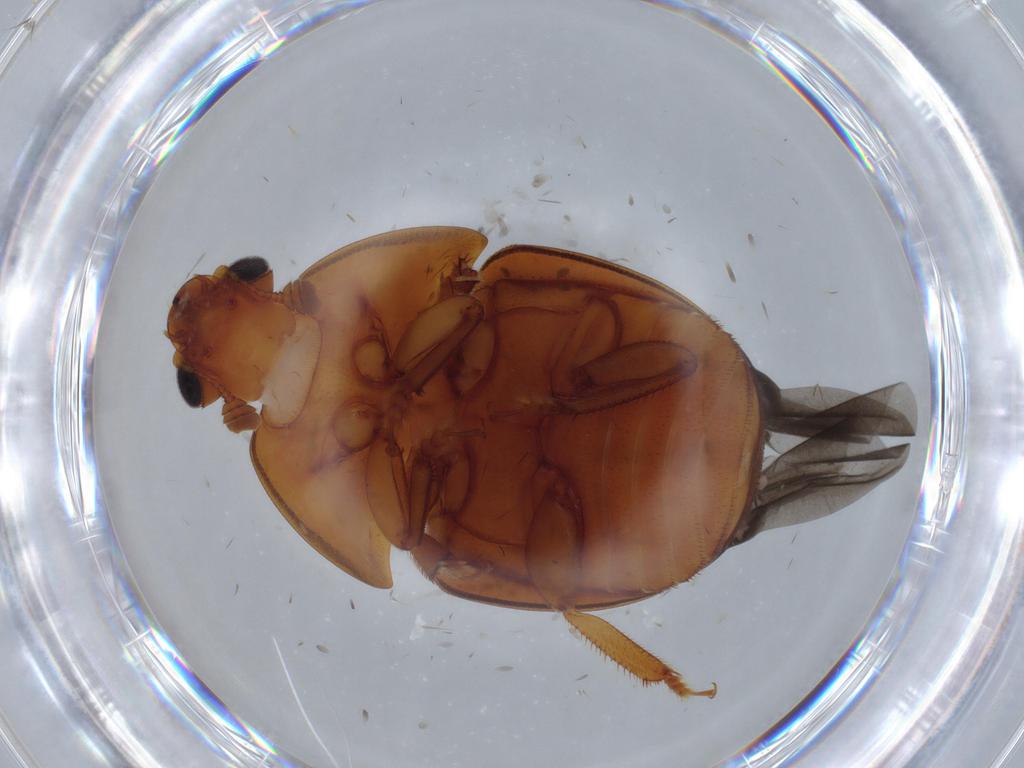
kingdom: Animalia
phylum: Arthropoda
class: Insecta
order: Coleoptera
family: Nitidulidae
